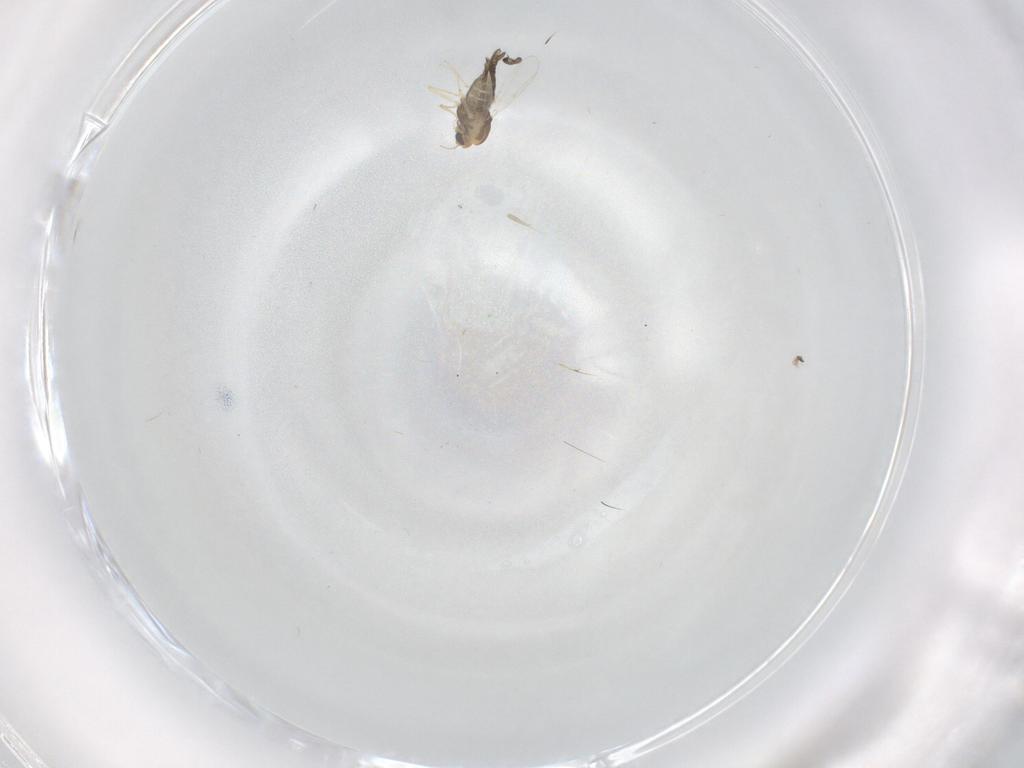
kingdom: Animalia
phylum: Arthropoda
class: Insecta
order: Diptera
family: Chironomidae
